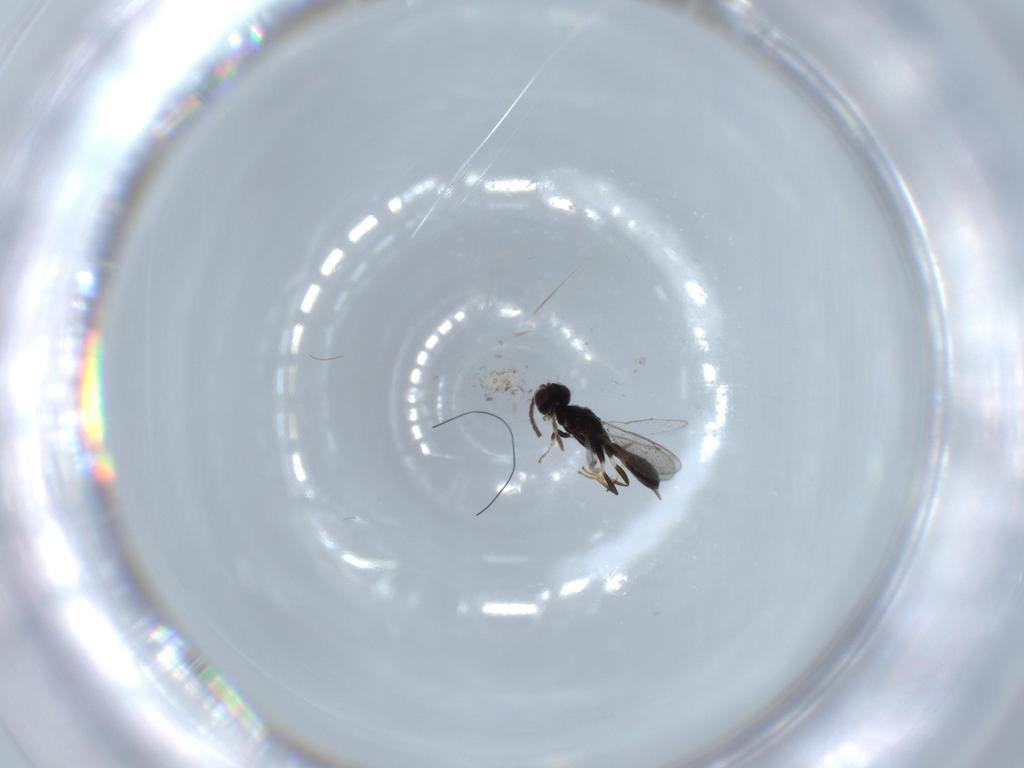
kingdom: Animalia
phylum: Arthropoda
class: Insecta
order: Hymenoptera
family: Eupelmidae
